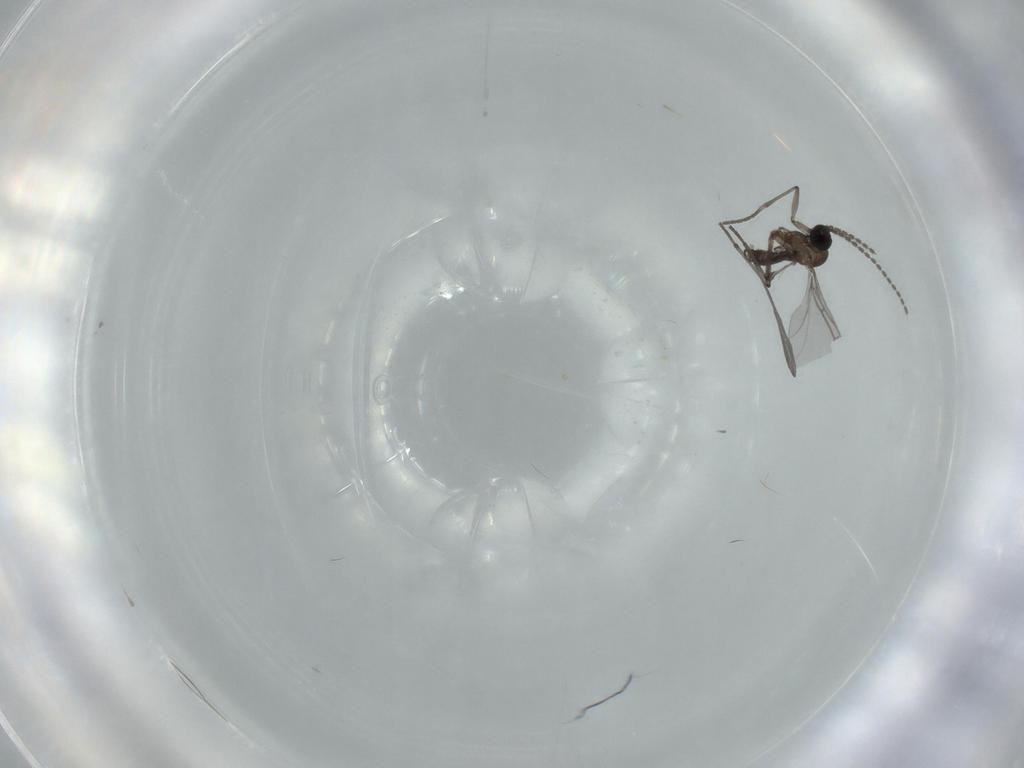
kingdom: Animalia
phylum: Arthropoda
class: Insecta
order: Diptera
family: Sciaridae
